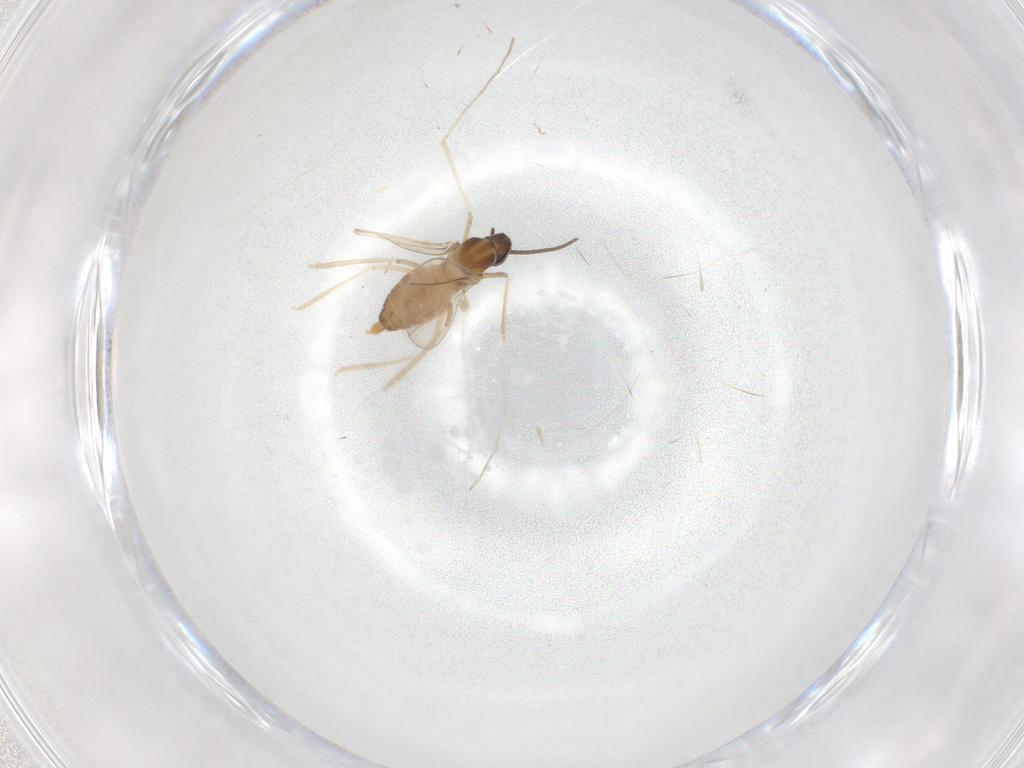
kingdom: Animalia
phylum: Arthropoda
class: Insecta
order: Diptera
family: Cecidomyiidae
